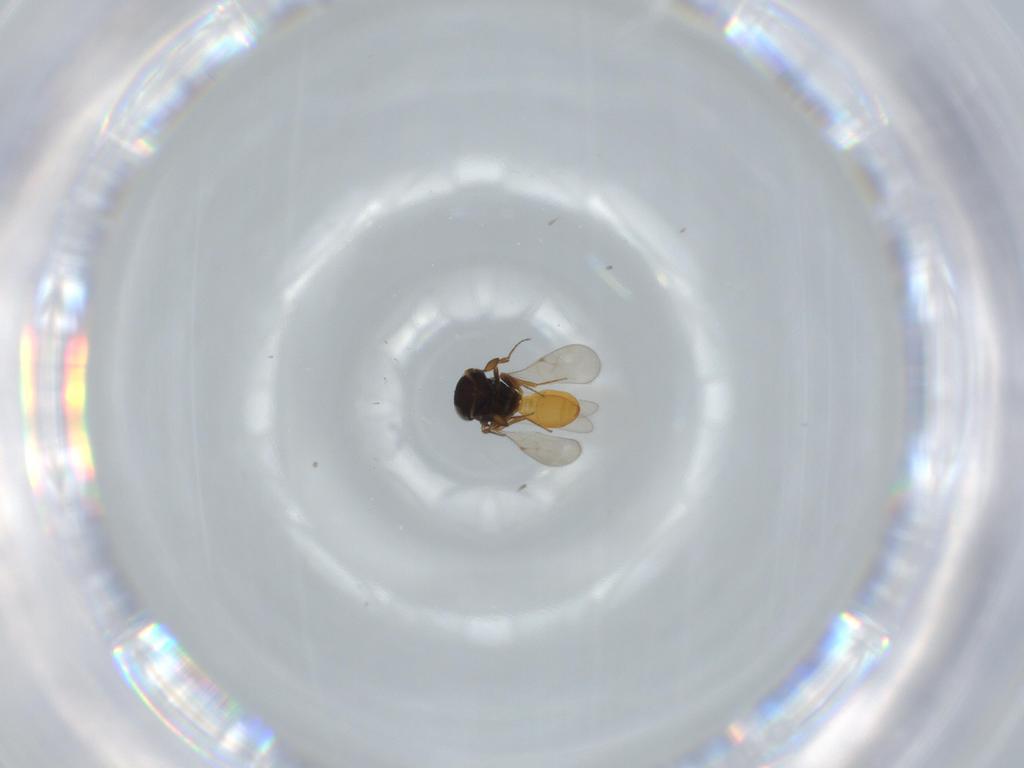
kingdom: Animalia
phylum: Arthropoda
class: Insecta
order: Hymenoptera
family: Scelionidae
